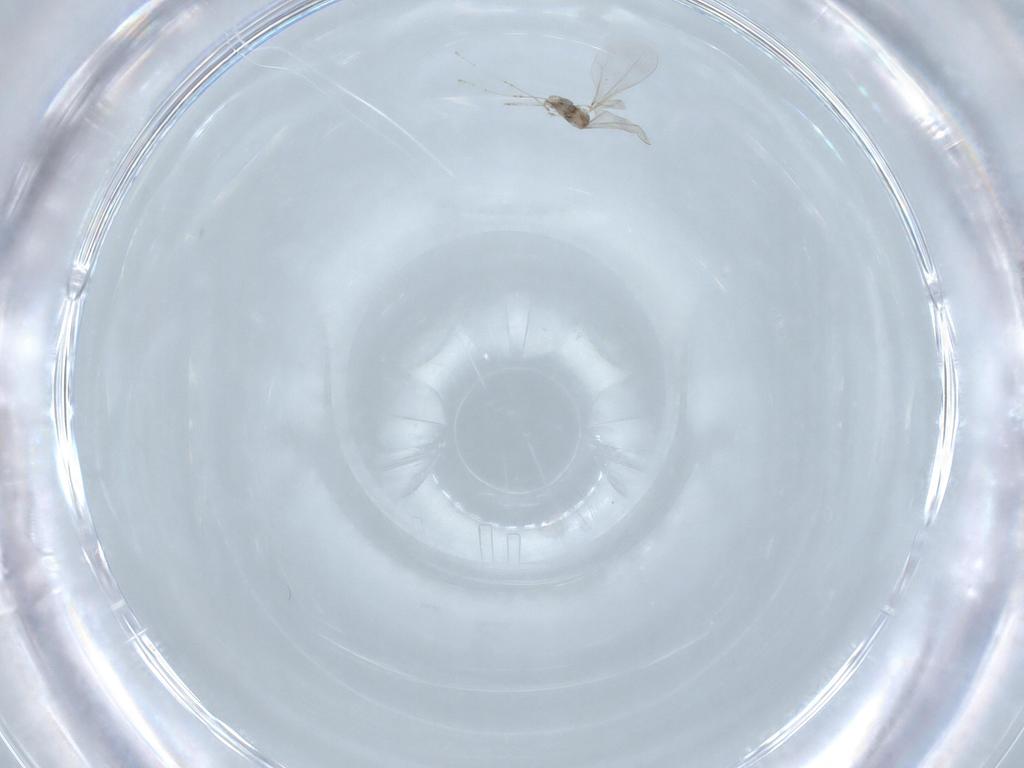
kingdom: Animalia
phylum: Arthropoda
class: Insecta
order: Diptera
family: Cecidomyiidae
